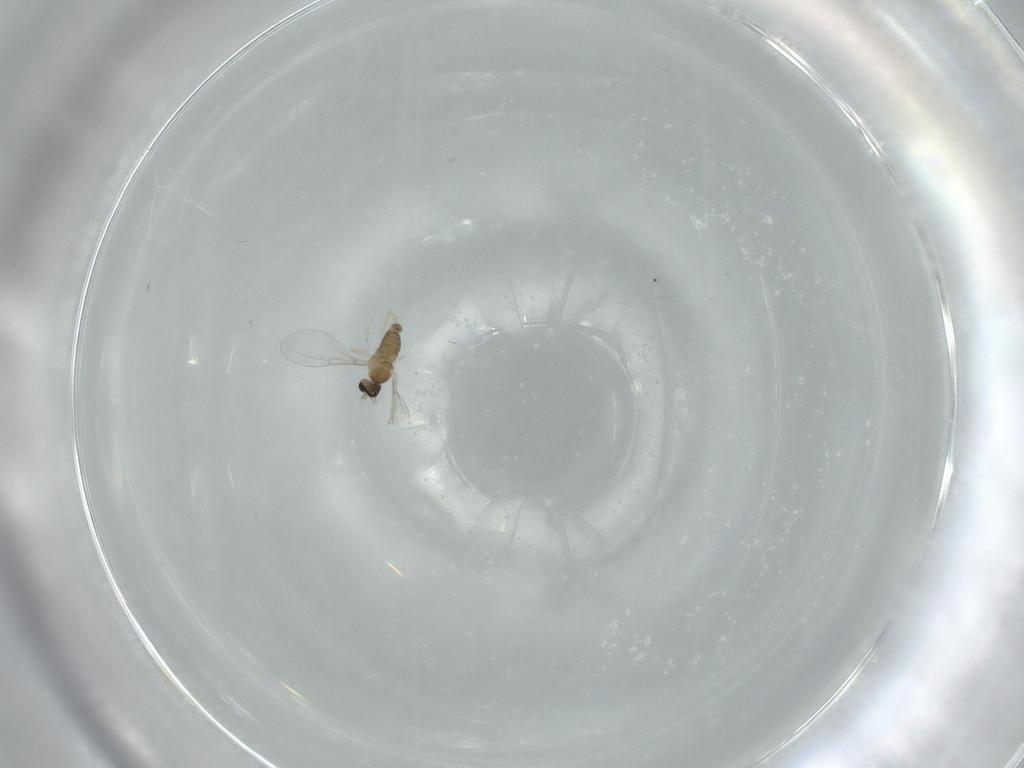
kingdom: Animalia
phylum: Arthropoda
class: Insecta
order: Diptera
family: Cecidomyiidae
